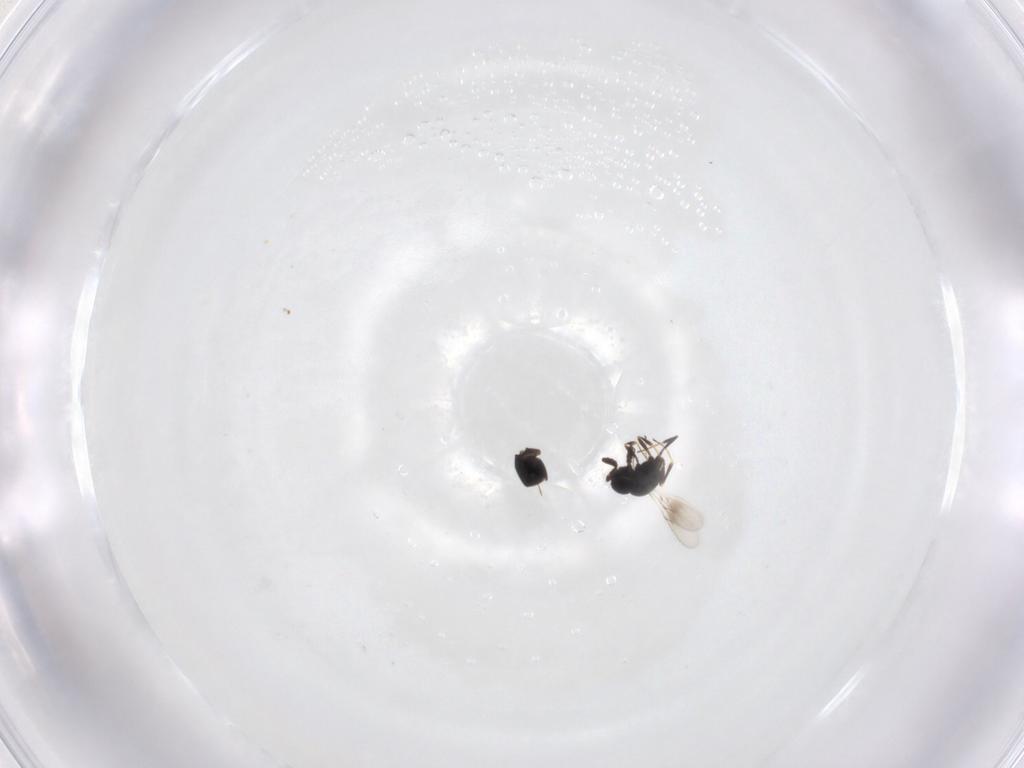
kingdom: Animalia
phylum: Arthropoda
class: Insecta
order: Hymenoptera
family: Scelionidae
